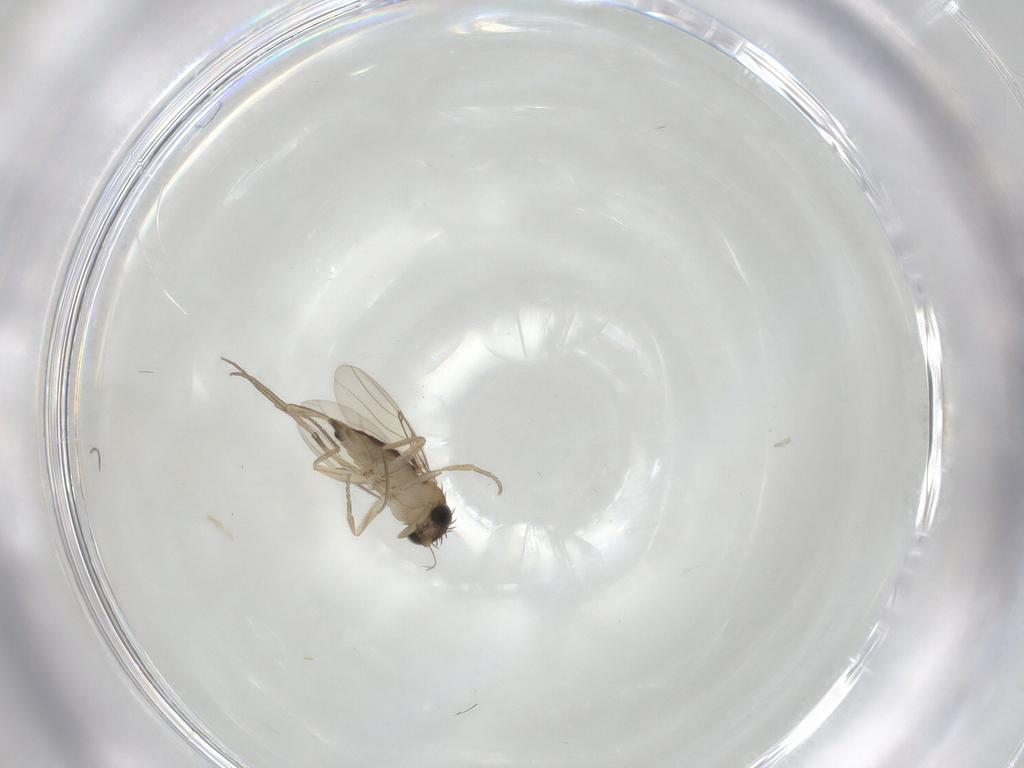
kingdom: Animalia
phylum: Arthropoda
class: Insecta
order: Diptera
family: Phoridae
